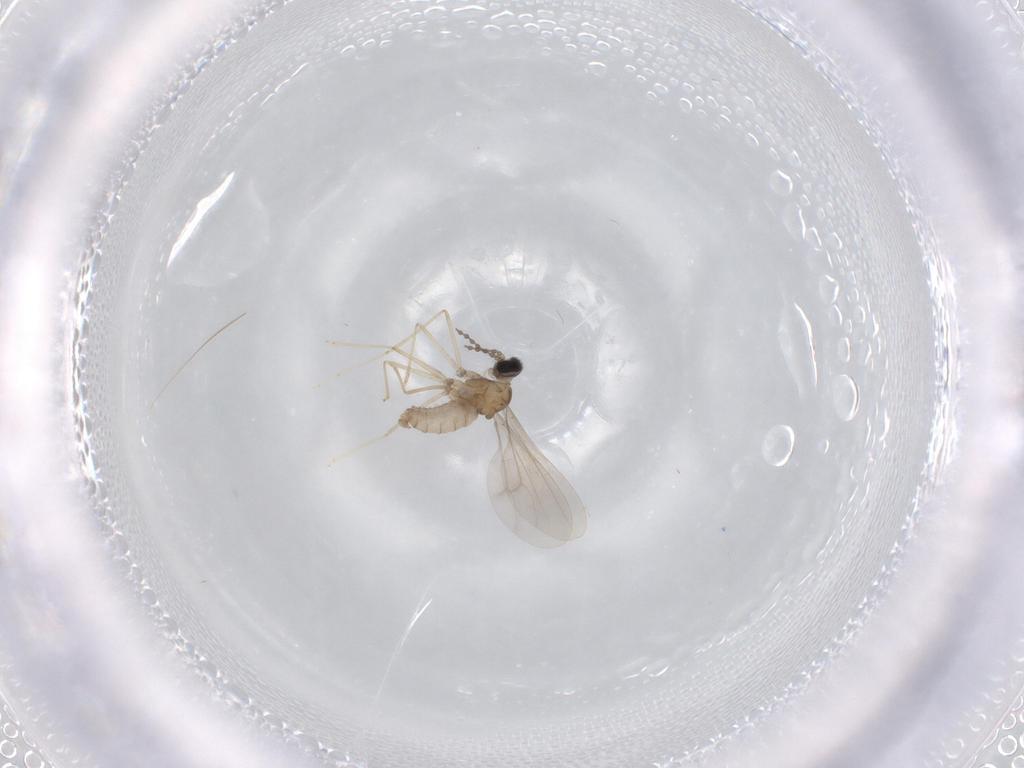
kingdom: Animalia
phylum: Arthropoda
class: Insecta
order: Diptera
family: Cecidomyiidae
